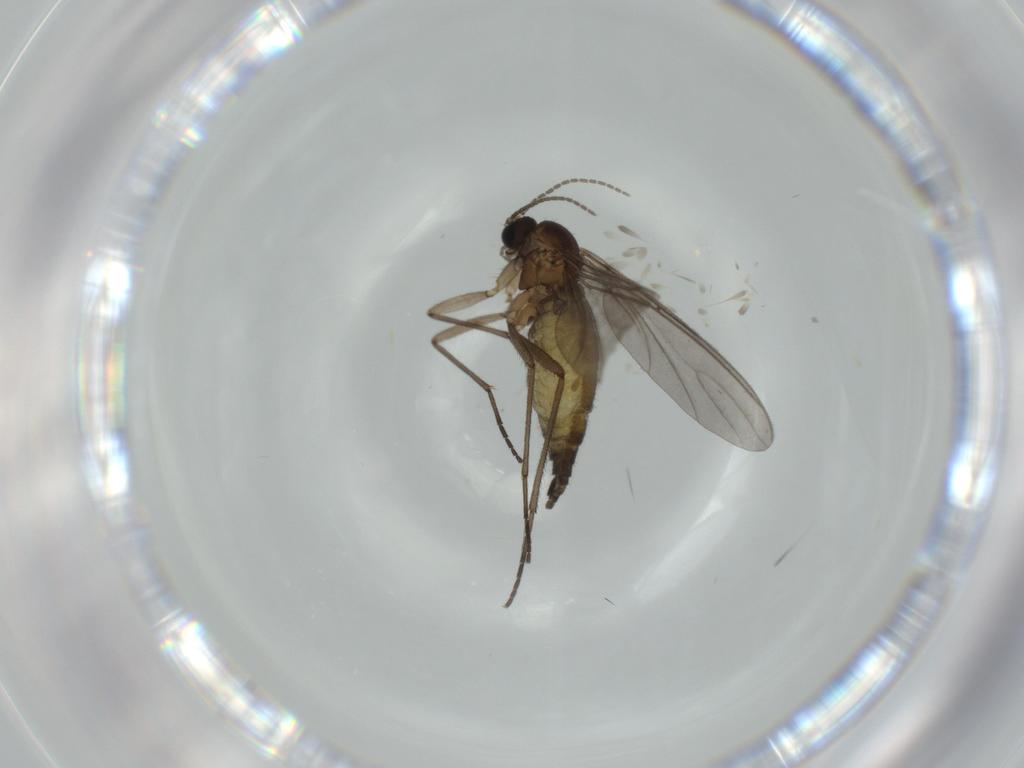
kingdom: Animalia
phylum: Arthropoda
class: Insecta
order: Diptera
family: Sciaridae
